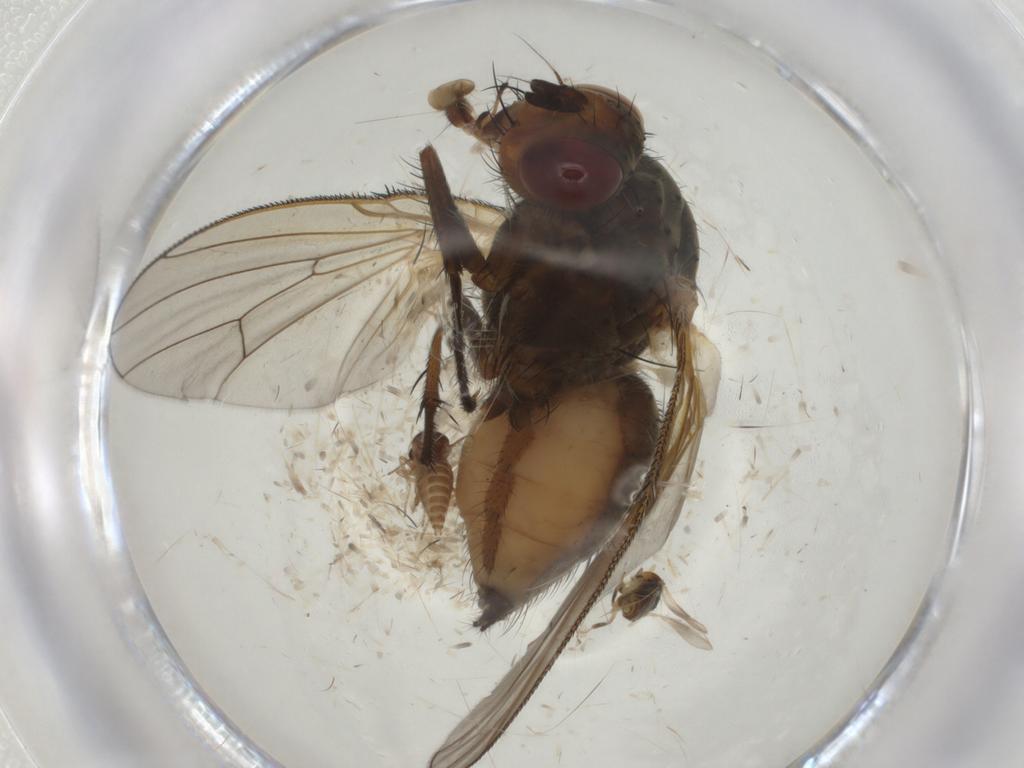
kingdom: Animalia
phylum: Arthropoda
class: Insecta
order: Diptera
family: Anthomyiidae
